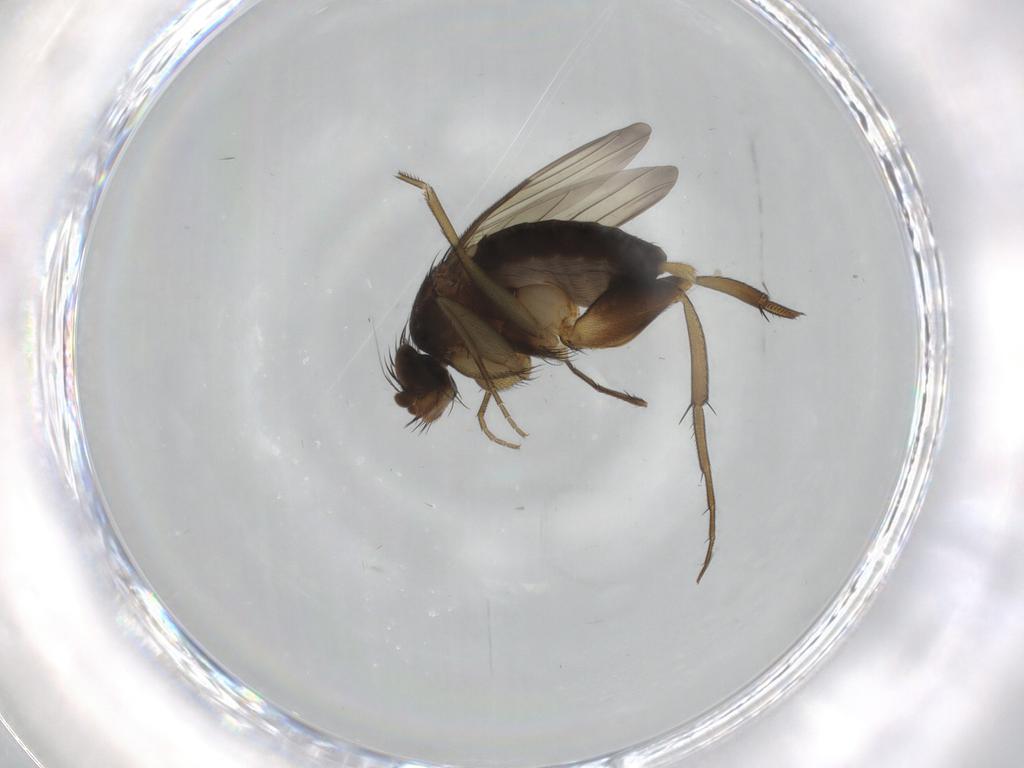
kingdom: Animalia
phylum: Arthropoda
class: Insecta
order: Diptera
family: Phoridae
